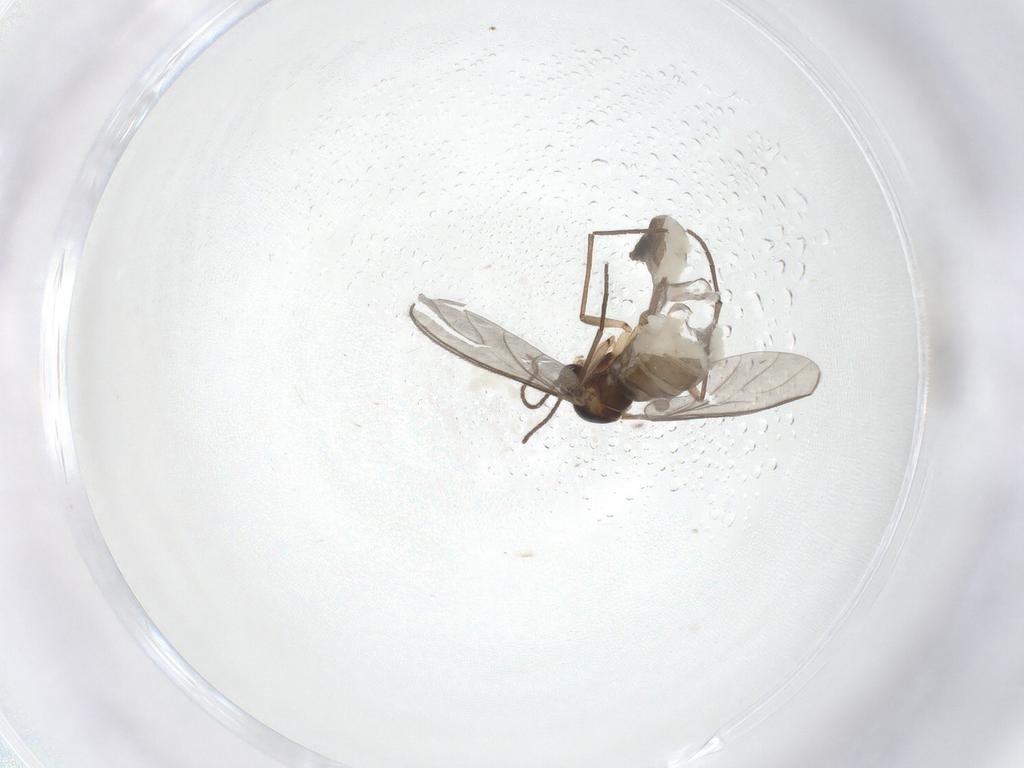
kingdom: Animalia
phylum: Arthropoda
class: Insecta
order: Diptera
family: Sciaridae
